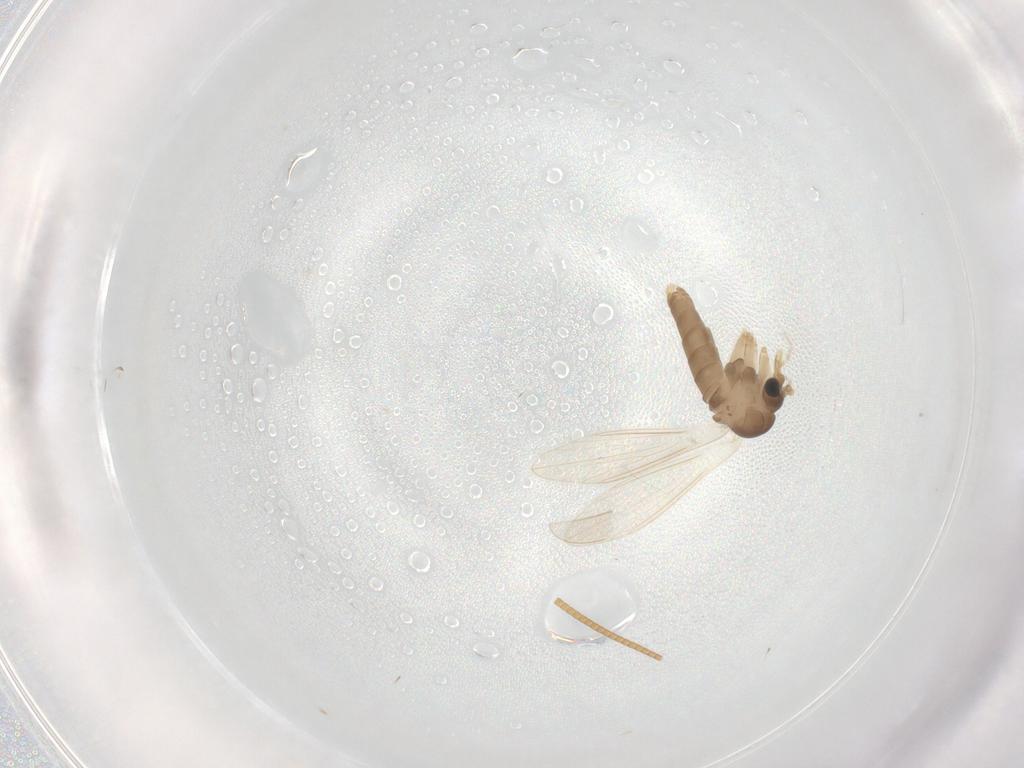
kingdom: Animalia
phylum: Arthropoda
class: Insecta
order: Diptera
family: Psychodidae
